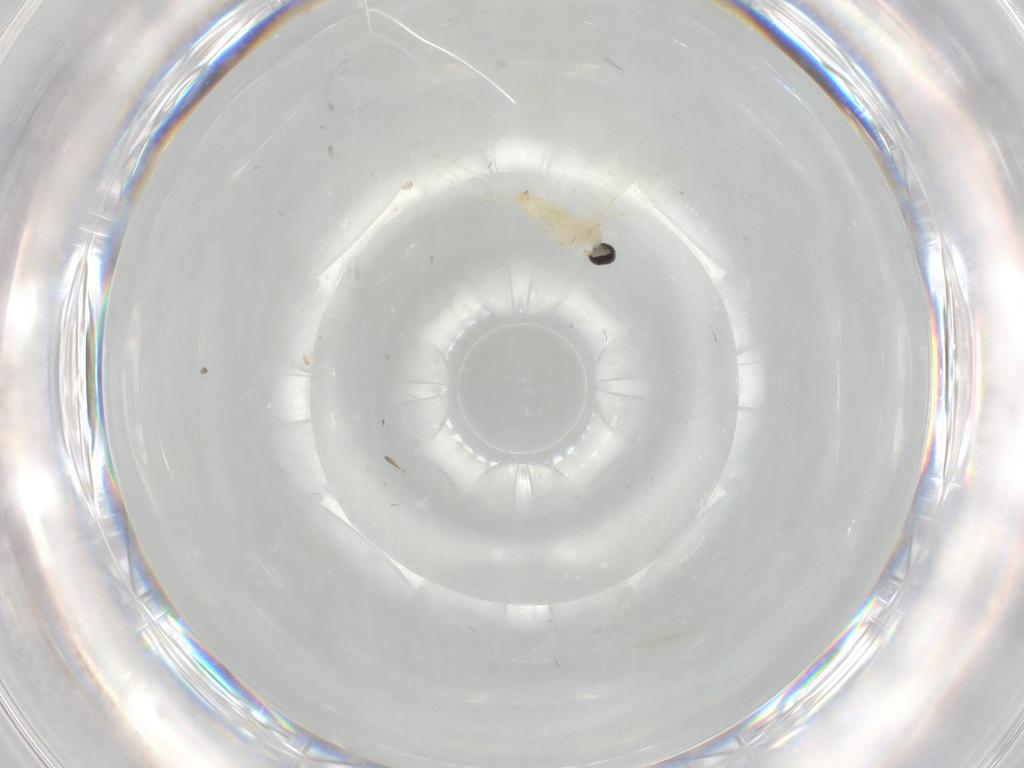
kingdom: Animalia
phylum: Arthropoda
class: Insecta
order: Diptera
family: Cecidomyiidae
